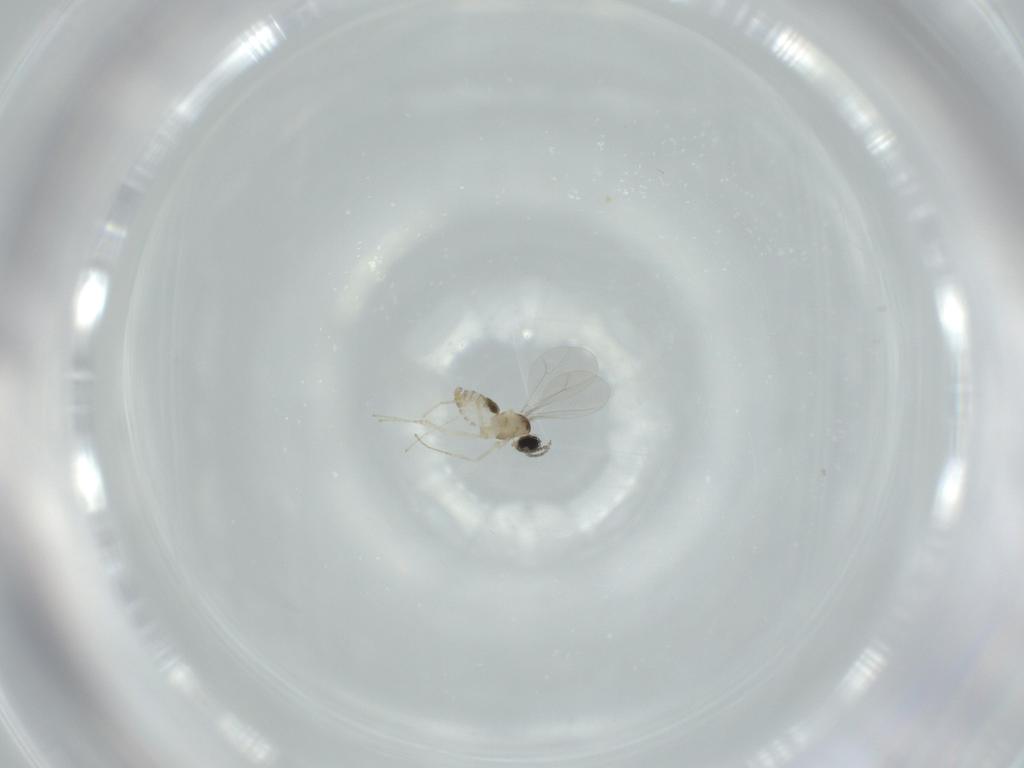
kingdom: Animalia
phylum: Arthropoda
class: Insecta
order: Diptera
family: Cecidomyiidae
